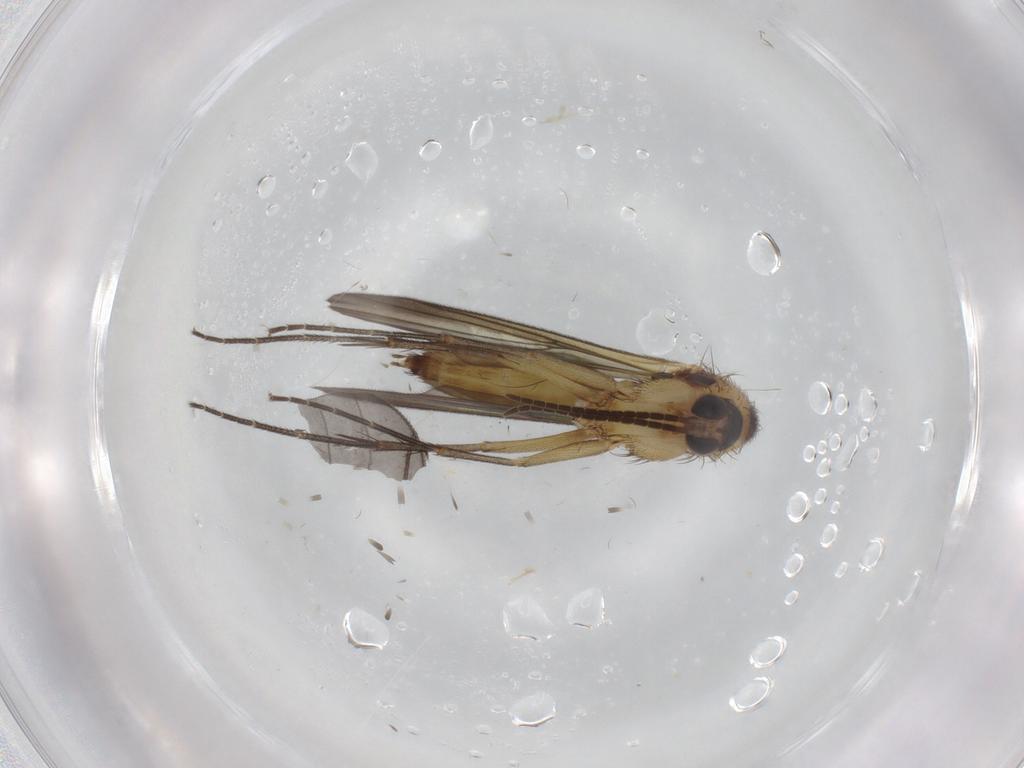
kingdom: Animalia
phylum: Arthropoda
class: Insecta
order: Diptera
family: Mycetophilidae
